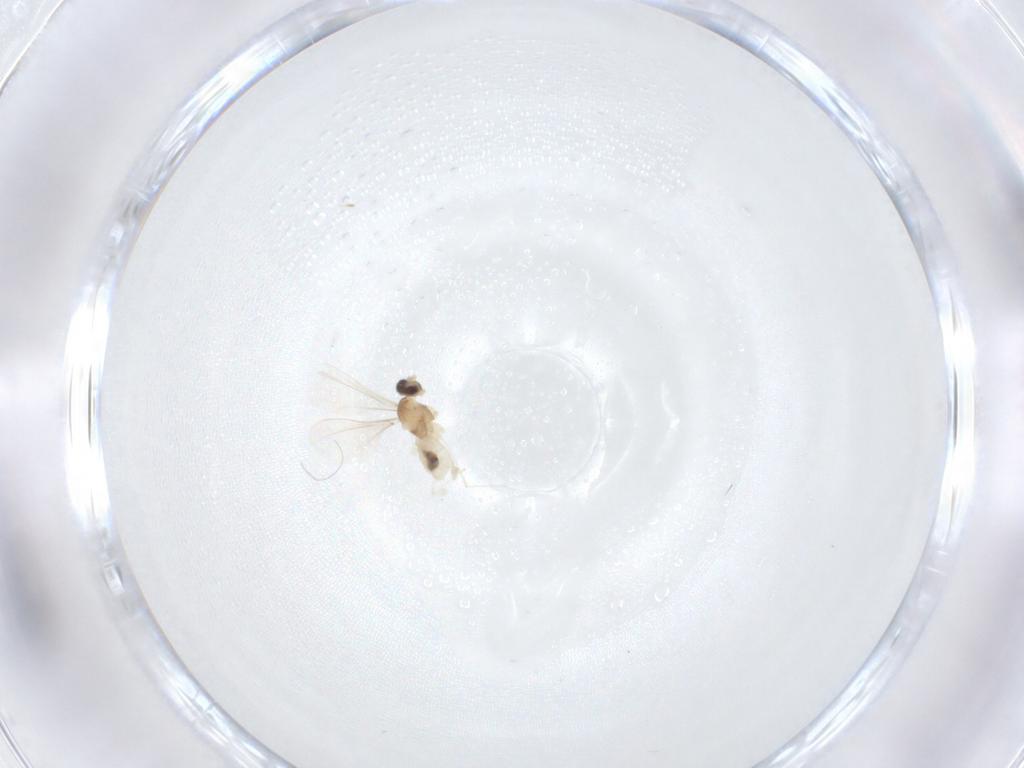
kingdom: Animalia
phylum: Arthropoda
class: Insecta
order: Diptera
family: Cecidomyiidae
